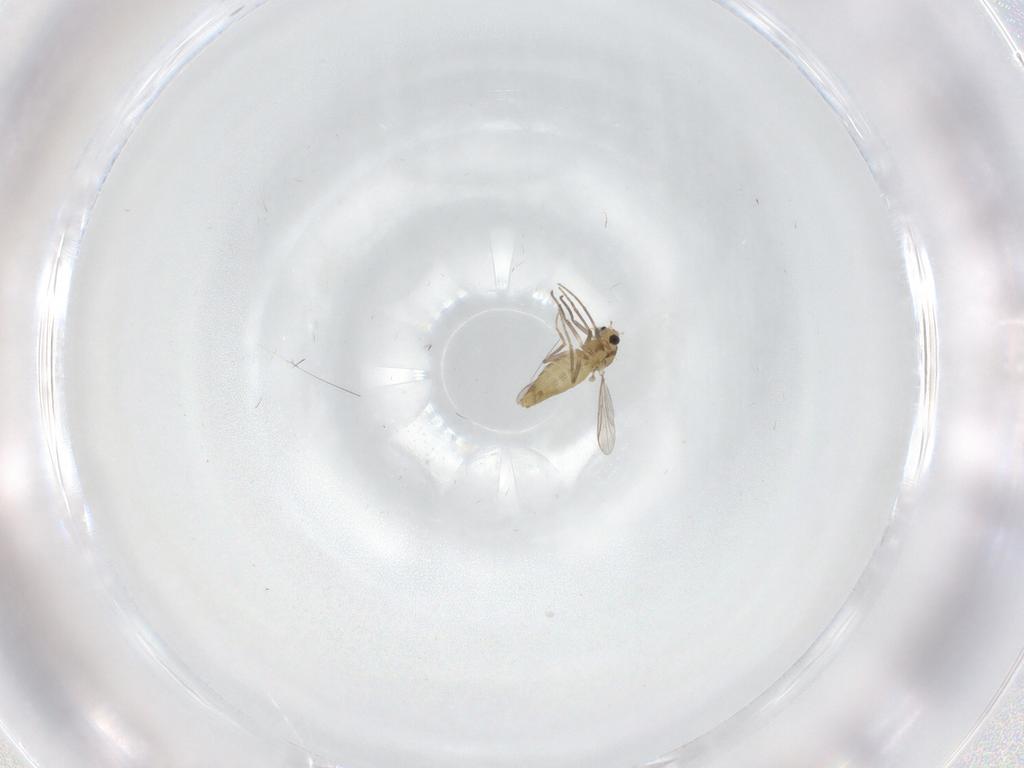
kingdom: Animalia
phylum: Arthropoda
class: Insecta
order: Diptera
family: Chironomidae
